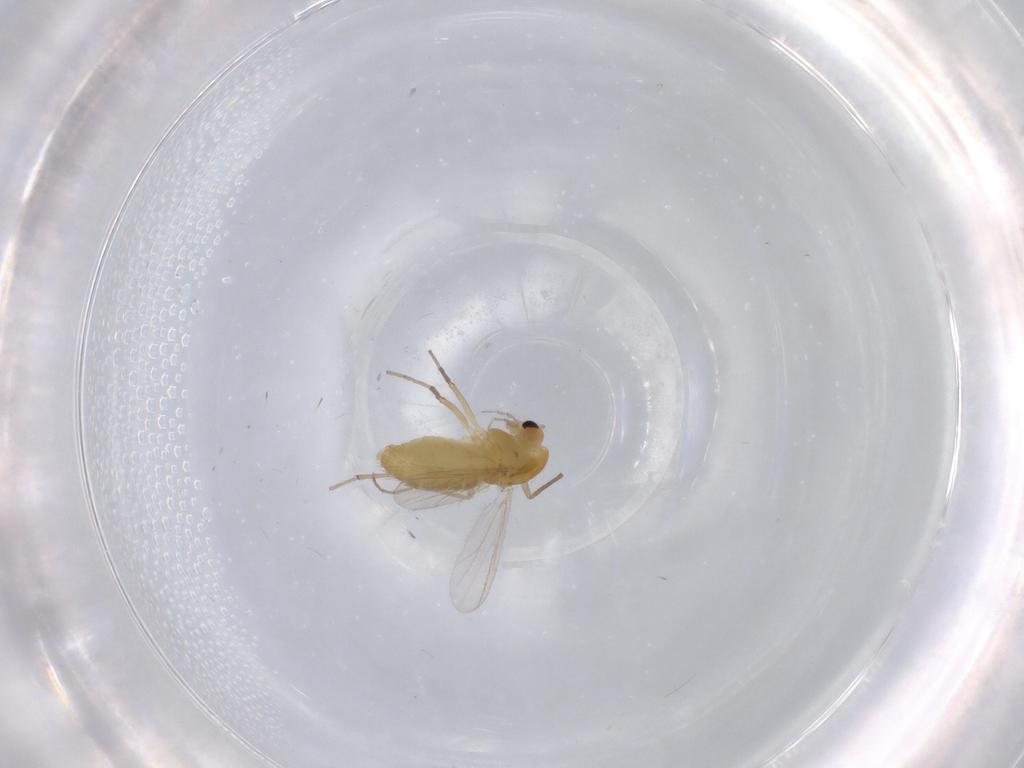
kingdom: Animalia
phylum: Arthropoda
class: Insecta
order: Diptera
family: Chironomidae
